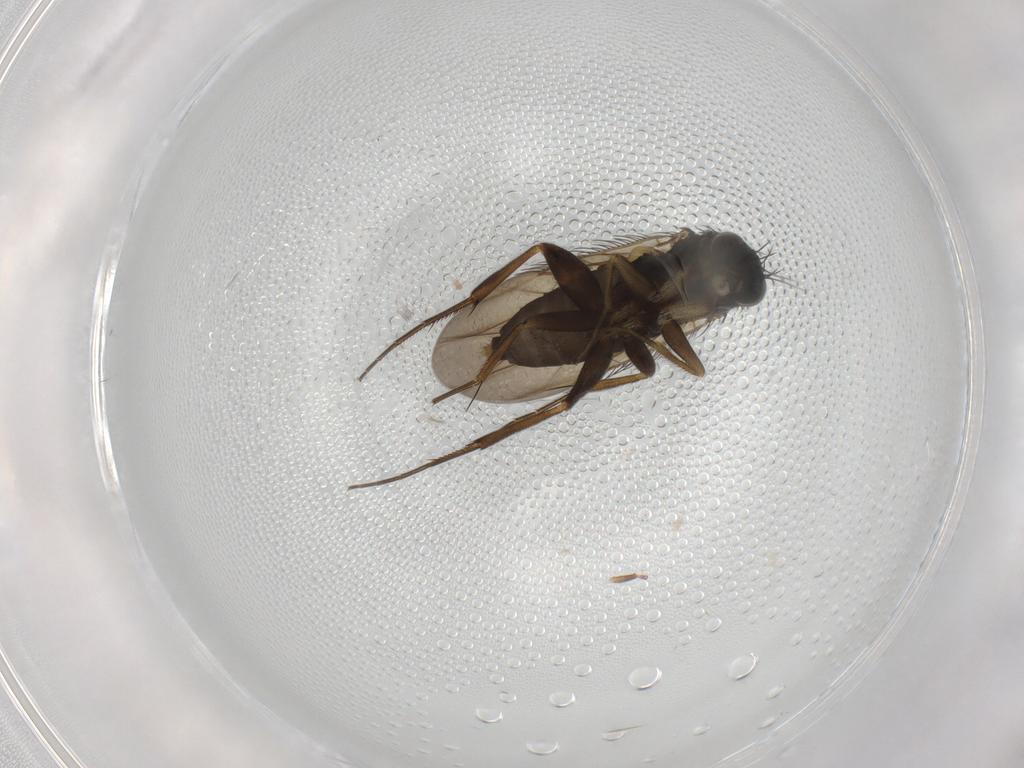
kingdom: Animalia
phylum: Arthropoda
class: Insecta
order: Diptera
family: Phoridae
